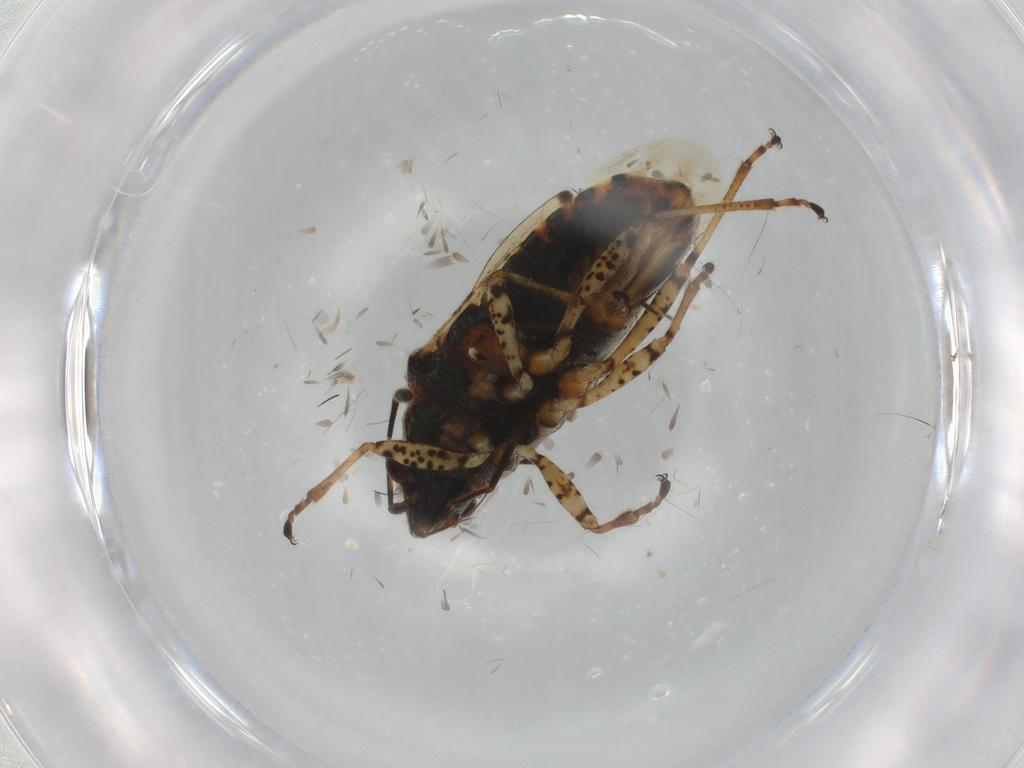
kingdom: Animalia
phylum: Arthropoda
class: Insecta
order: Hemiptera
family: Lygaeidae
